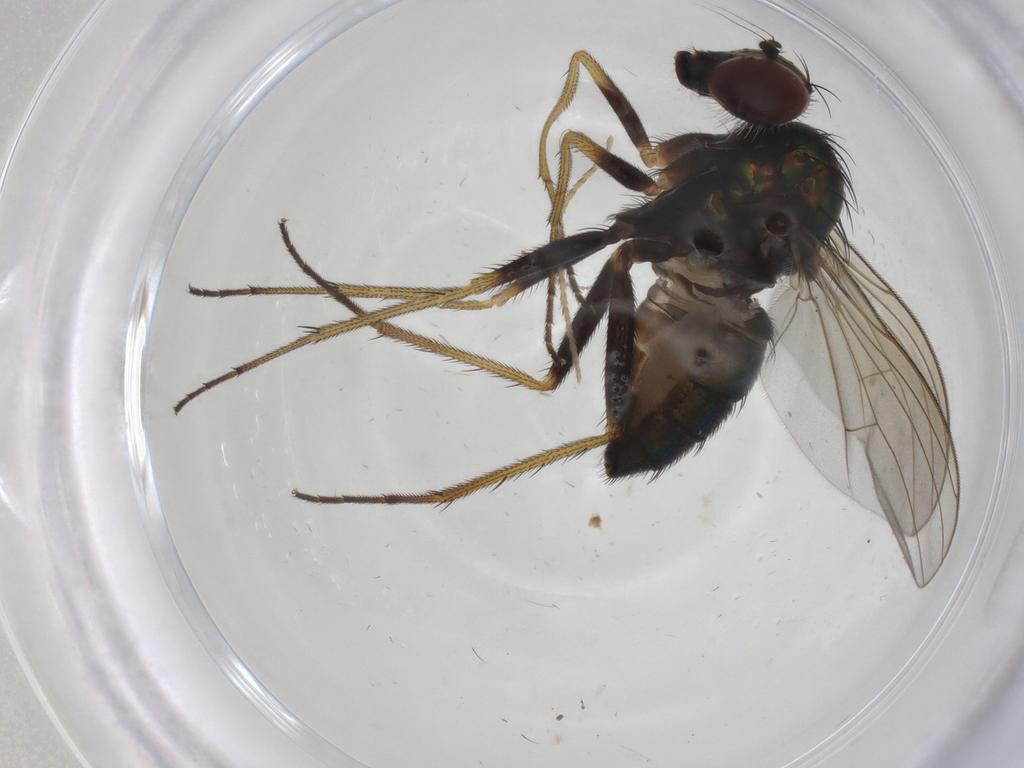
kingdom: Animalia
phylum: Arthropoda
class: Insecta
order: Diptera
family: Dolichopodidae
